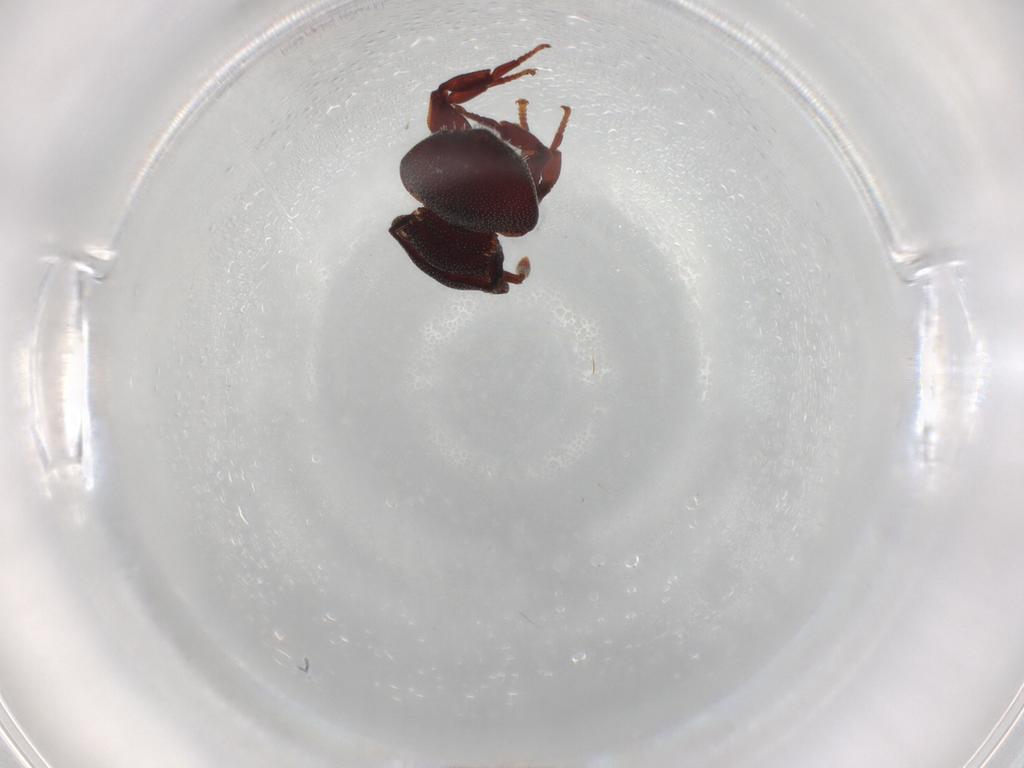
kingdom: Animalia
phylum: Arthropoda
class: Insecta
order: Hymenoptera
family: Formicidae
